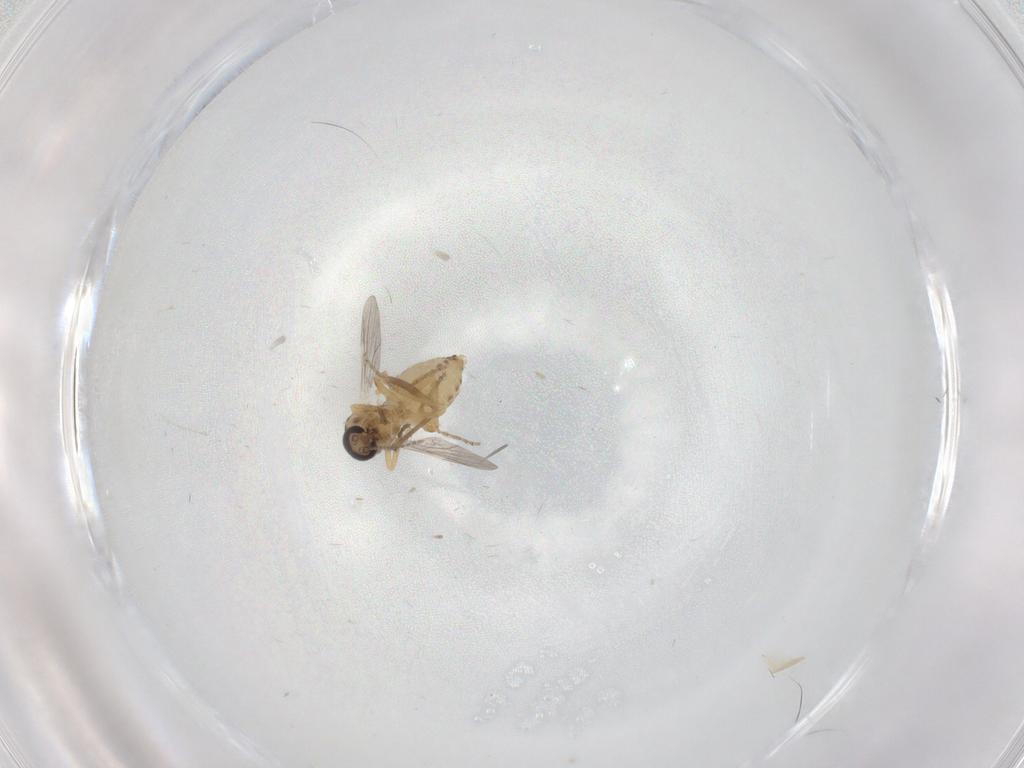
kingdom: Animalia
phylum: Arthropoda
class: Insecta
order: Diptera
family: Ceratopogonidae
